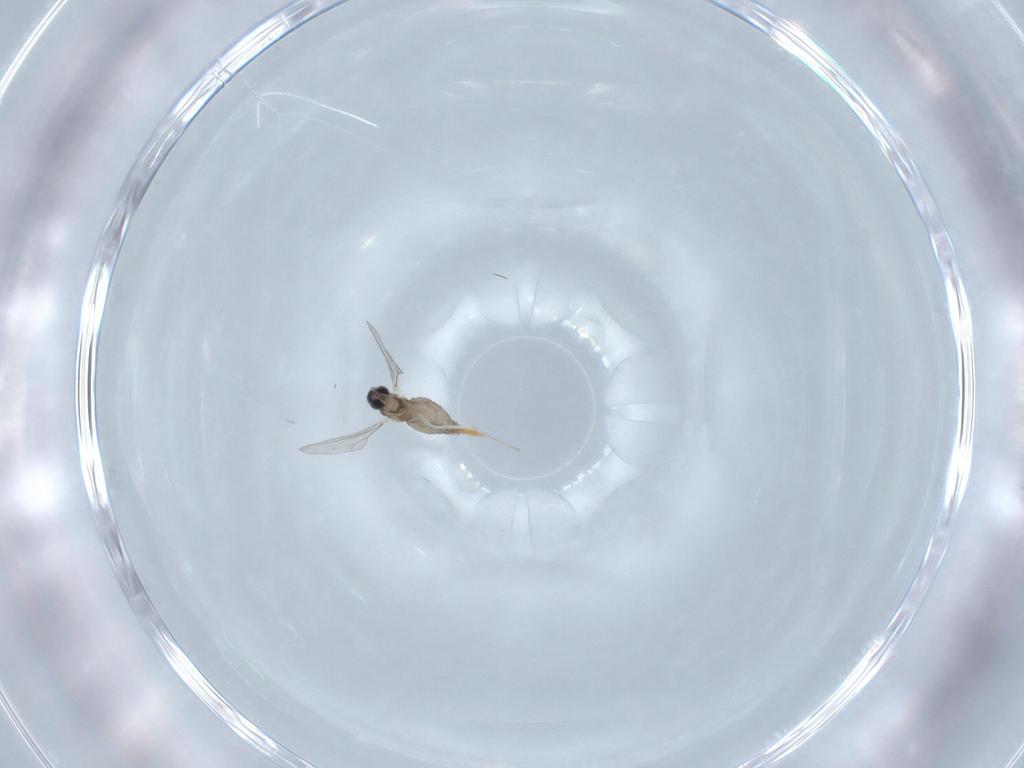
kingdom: Animalia
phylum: Arthropoda
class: Insecta
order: Diptera
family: Cecidomyiidae
